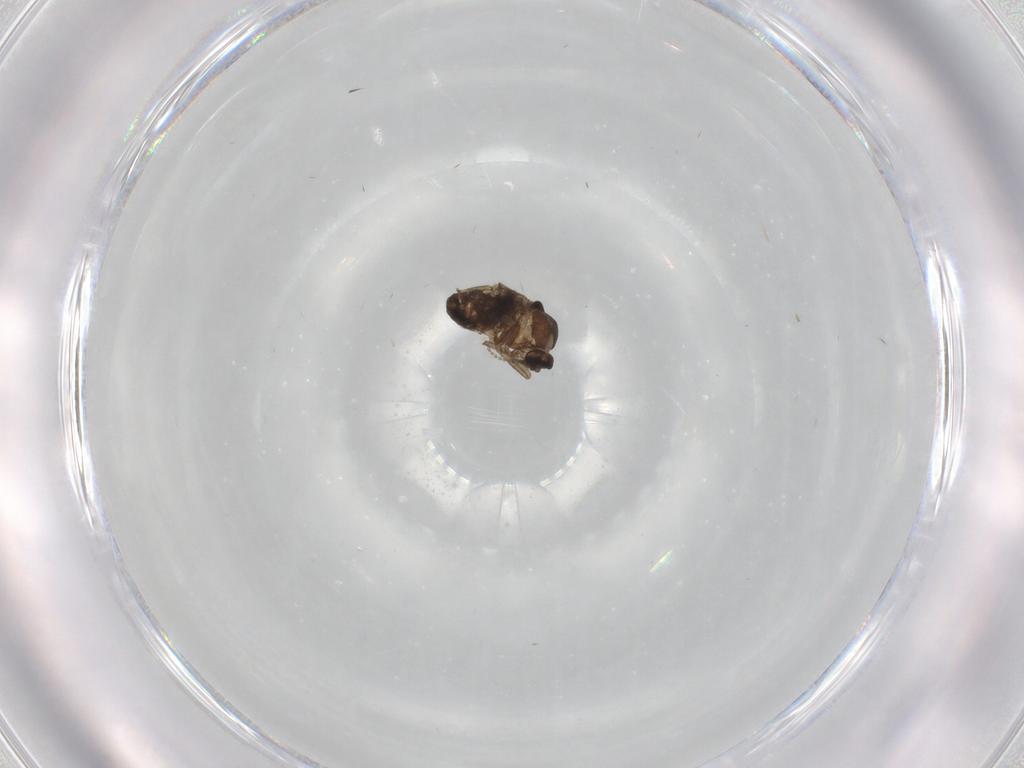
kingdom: Animalia
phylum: Arthropoda
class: Insecta
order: Diptera
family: Ceratopogonidae
